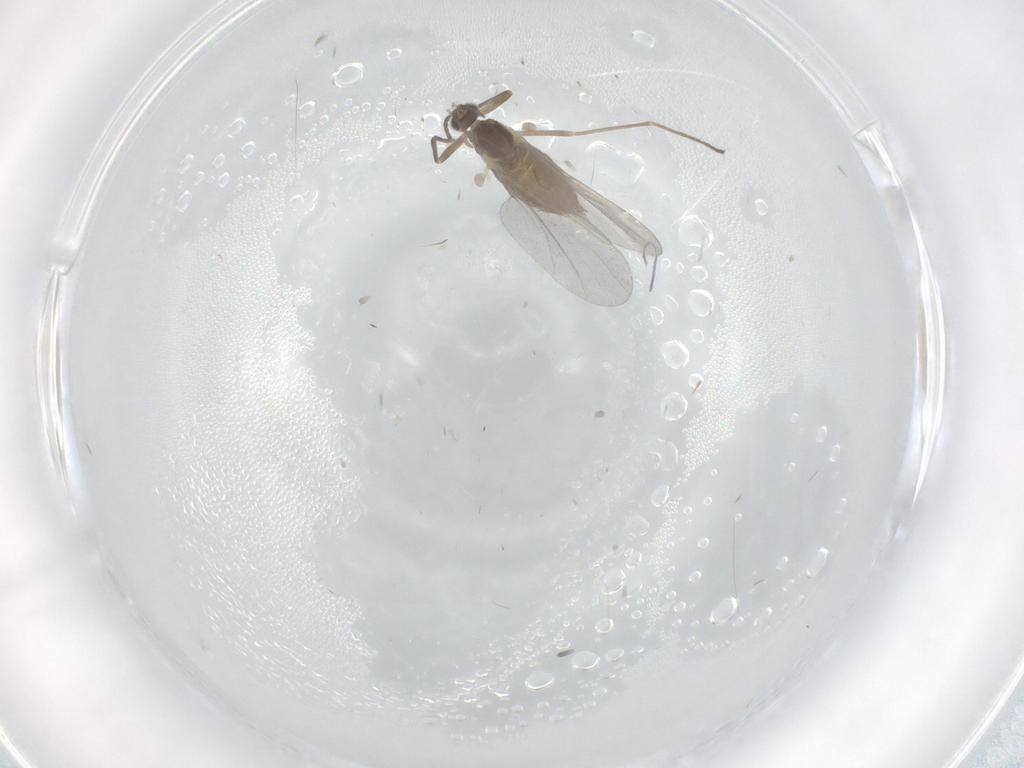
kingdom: Animalia
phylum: Arthropoda
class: Insecta
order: Diptera
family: Cecidomyiidae
